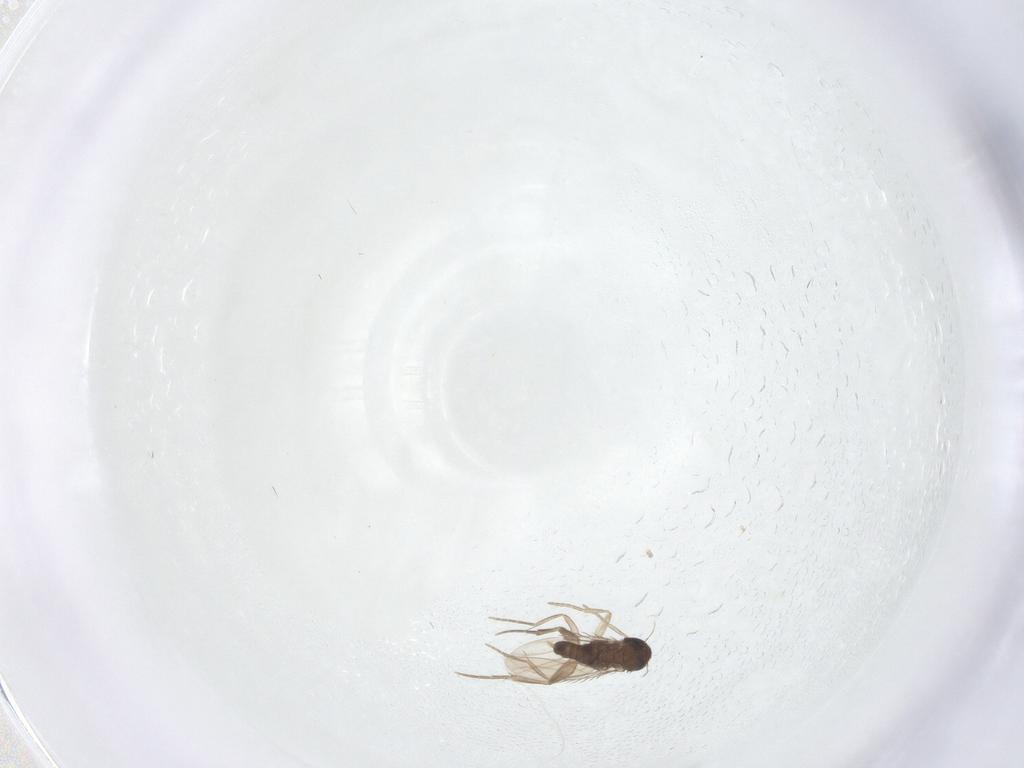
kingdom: Animalia
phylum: Arthropoda
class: Insecta
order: Diptera
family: Phoridae
